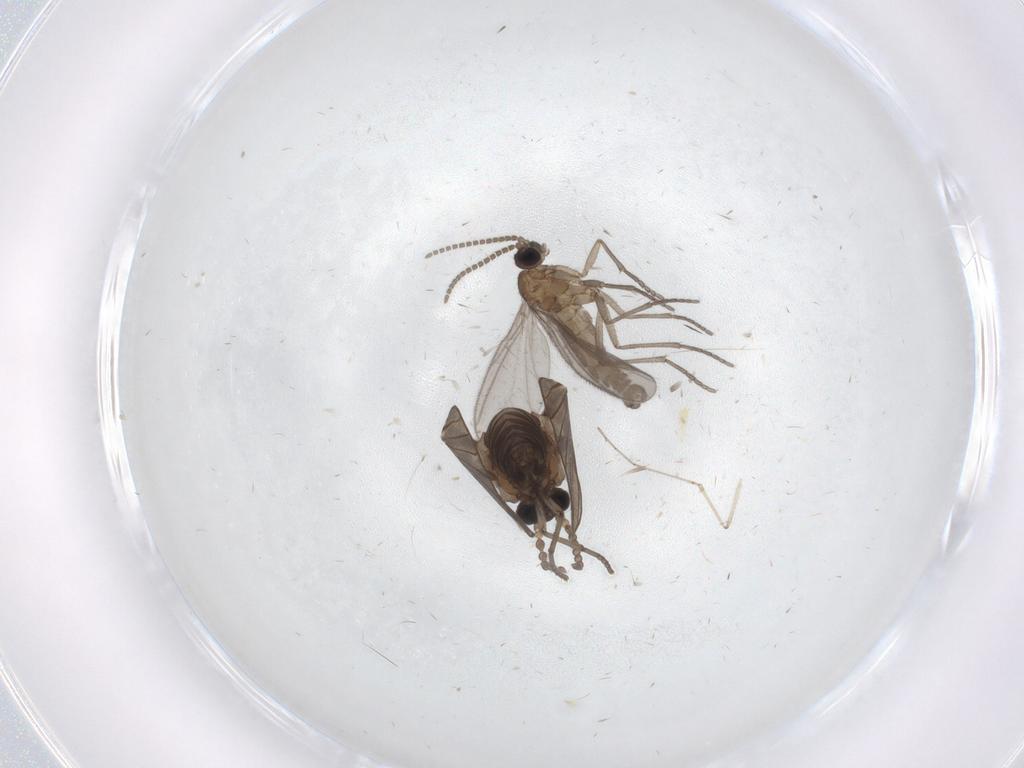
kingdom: Animalia
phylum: Arthropoda
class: Insecta
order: Diptera
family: Psychodidae
